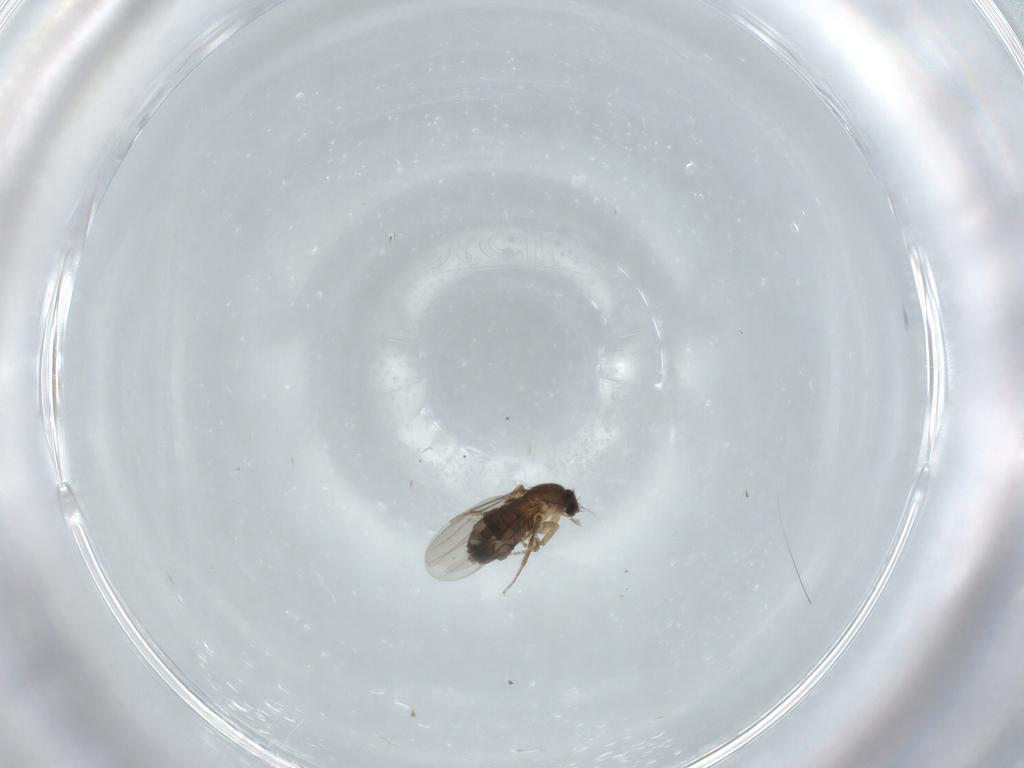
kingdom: Animalia
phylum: Arthropoda
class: Insecta
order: Diptera
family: Phoridae
